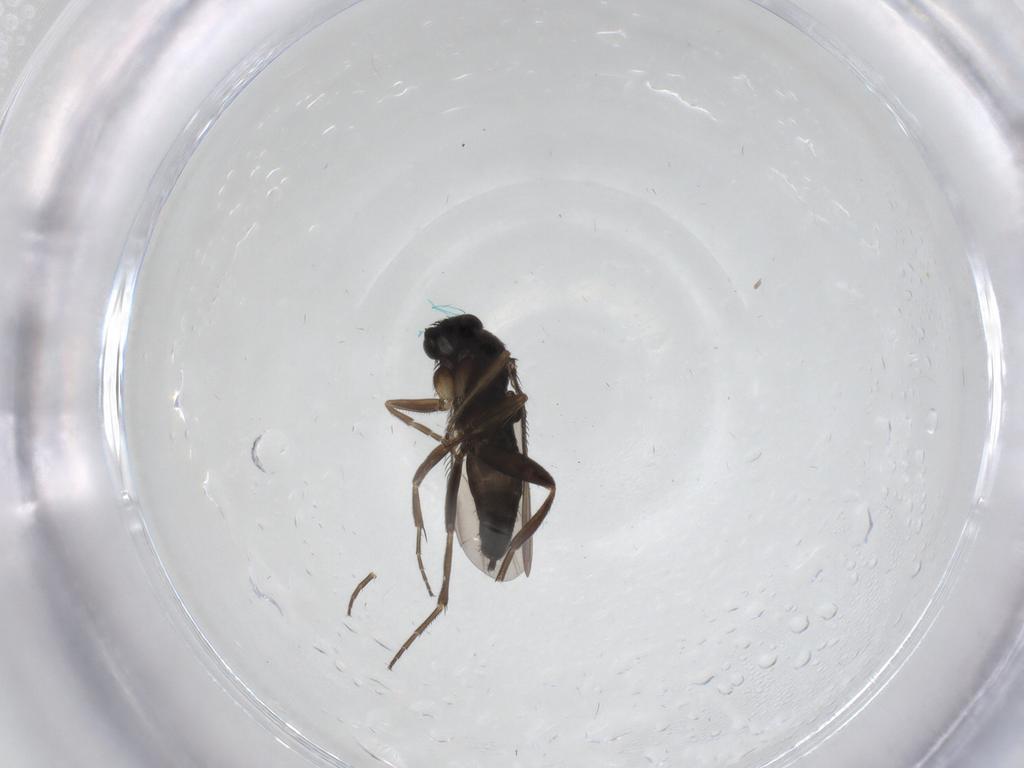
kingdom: Animalia
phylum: Arthropoda
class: Insecta
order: Diptera
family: Phoridae
